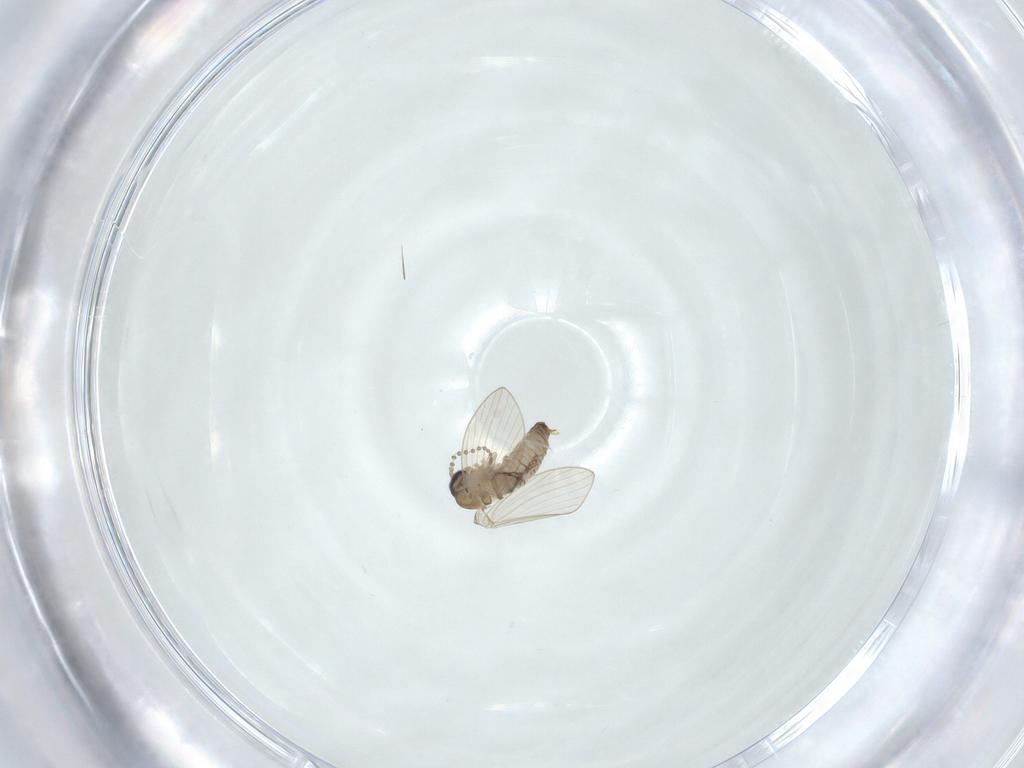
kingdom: Animalia
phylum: Arthropoda
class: Insecta
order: Diptera
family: Psychodidae
